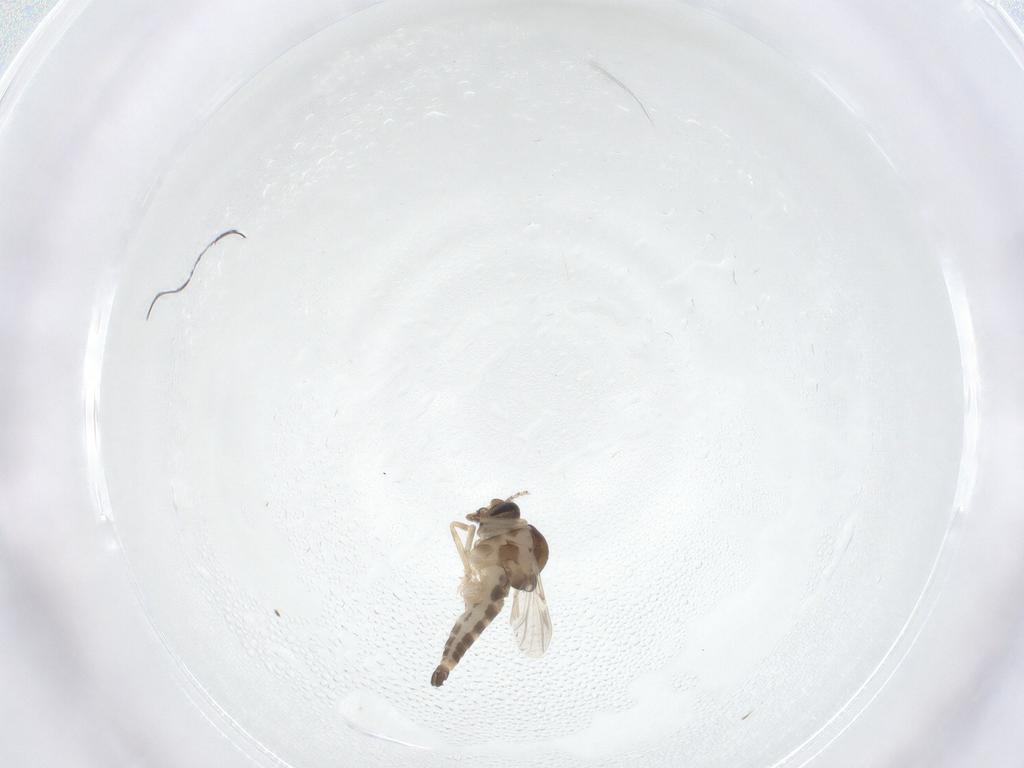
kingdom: Animalia
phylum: Arthropoda
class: Insecta
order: Diptera
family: Ceratopogonidae
